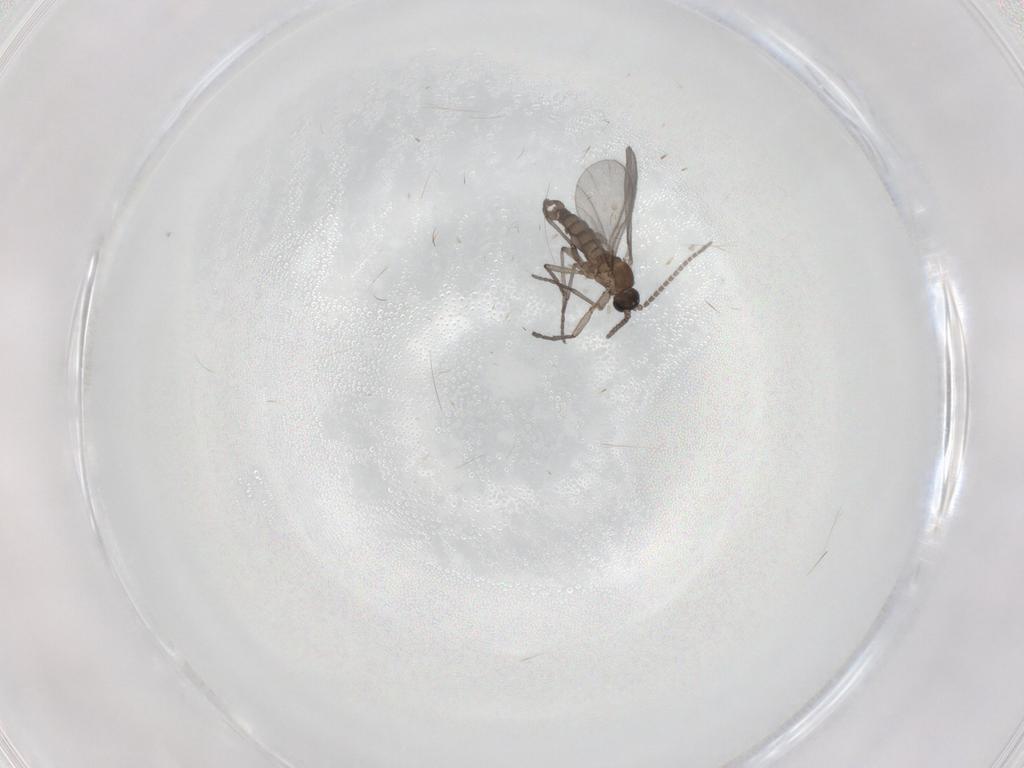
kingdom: Animalia
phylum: Arthropoda
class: Insecta
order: Diptera
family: Sciaridae
